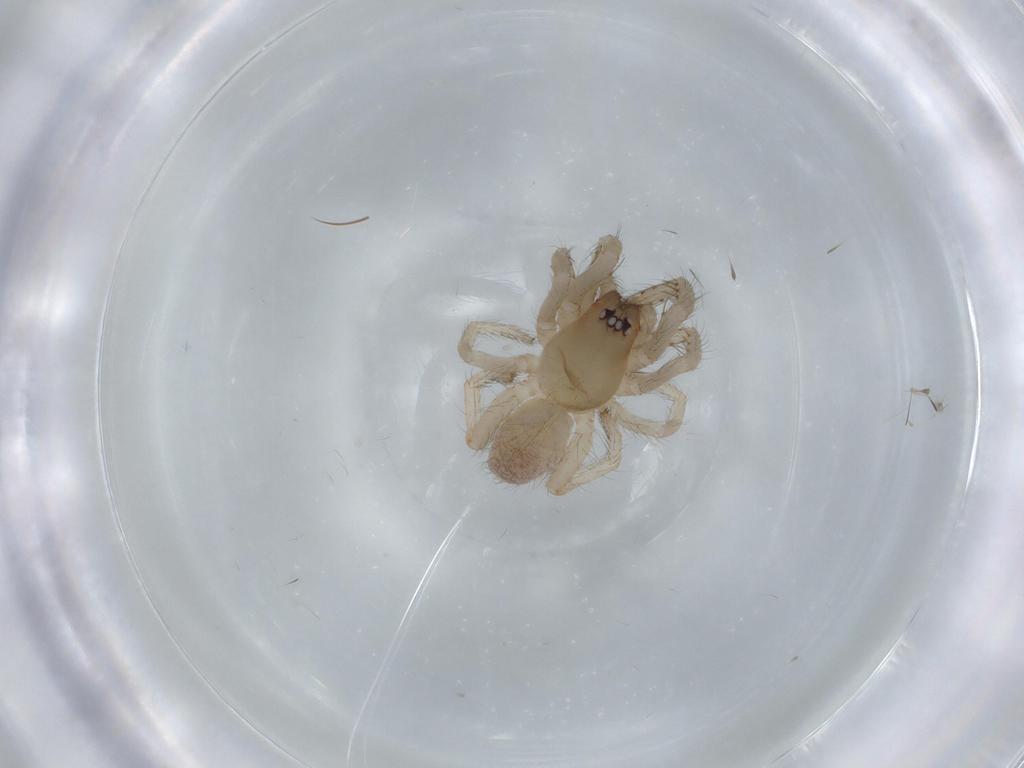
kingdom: Animalia
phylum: Arthropoda
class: Arachnida
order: Araneae
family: Segestriidae
